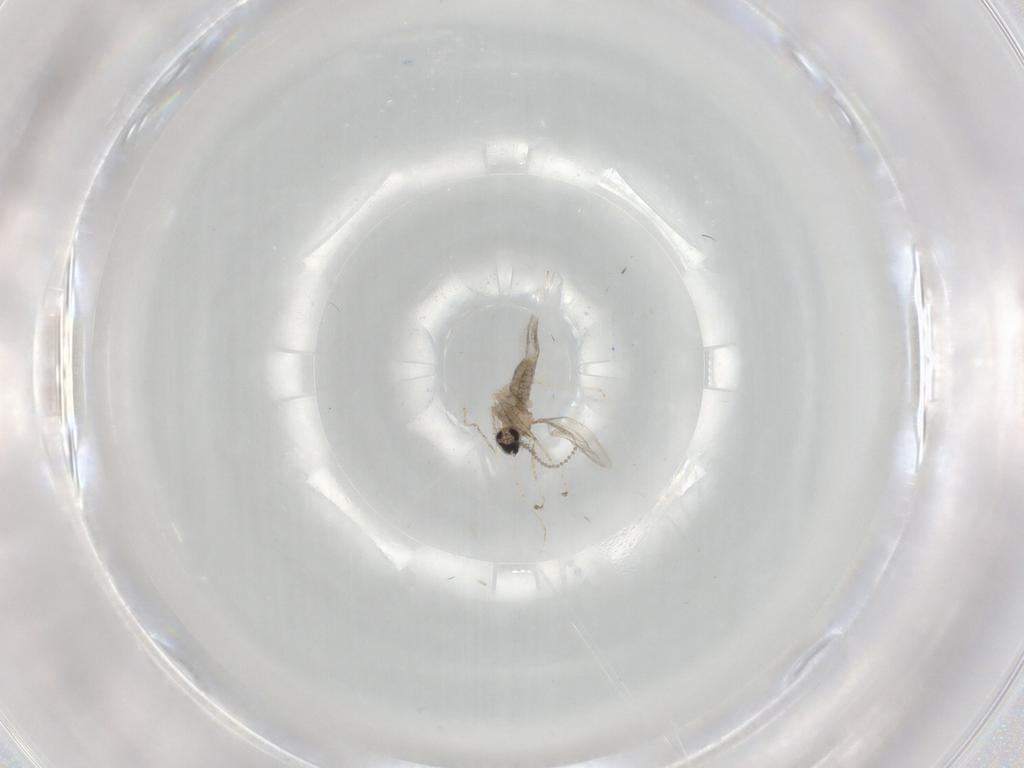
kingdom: Animalia
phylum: Arthropoda
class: Insecta
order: Diptera
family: Cecidomyiidae
